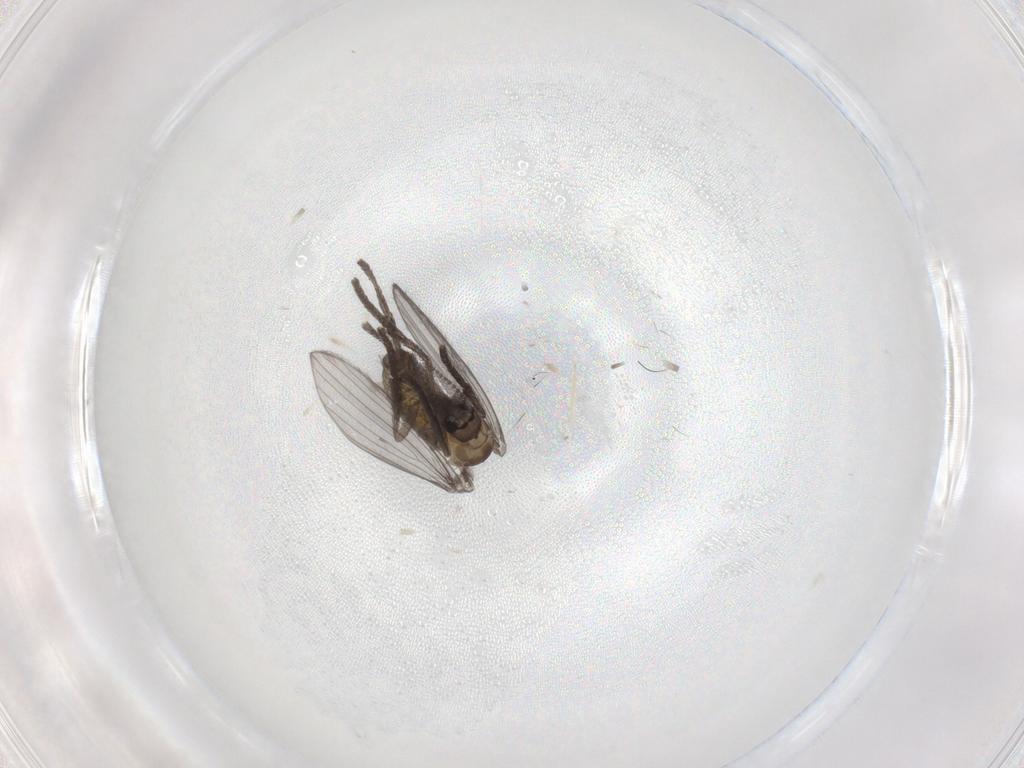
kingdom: Animalia
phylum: Arthropoda
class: Insecta
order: Diptera
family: Psychodidae
